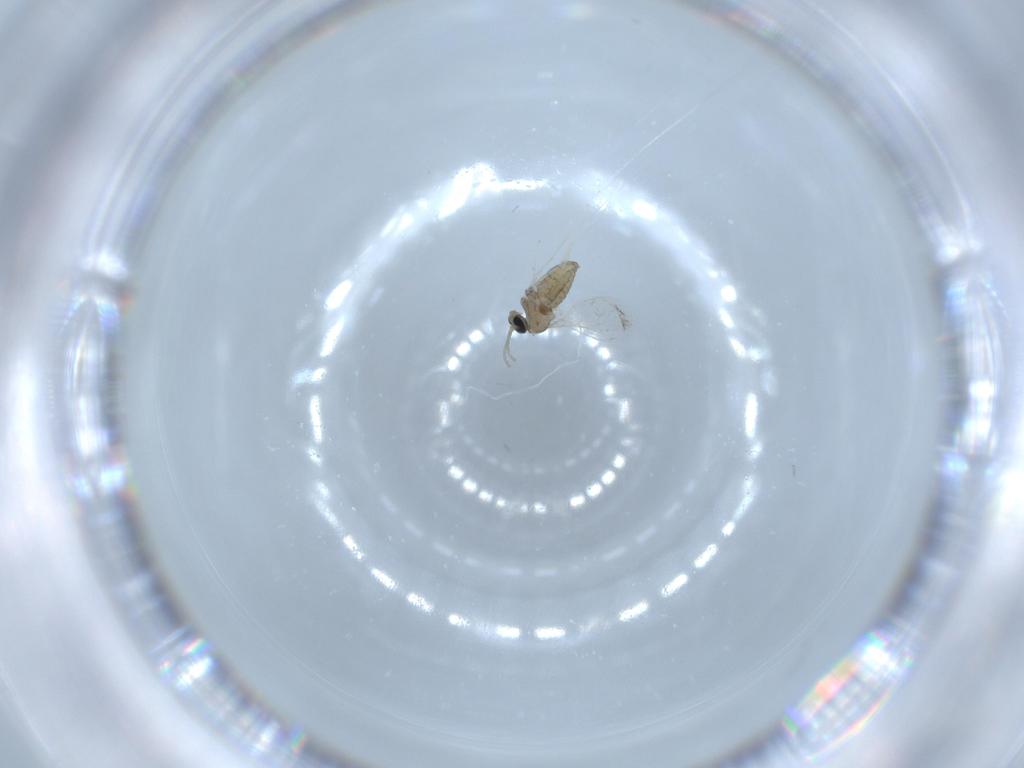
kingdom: Animalia
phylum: Arthropoda
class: Insecta
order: Diptera
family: Cecidomyiidae
